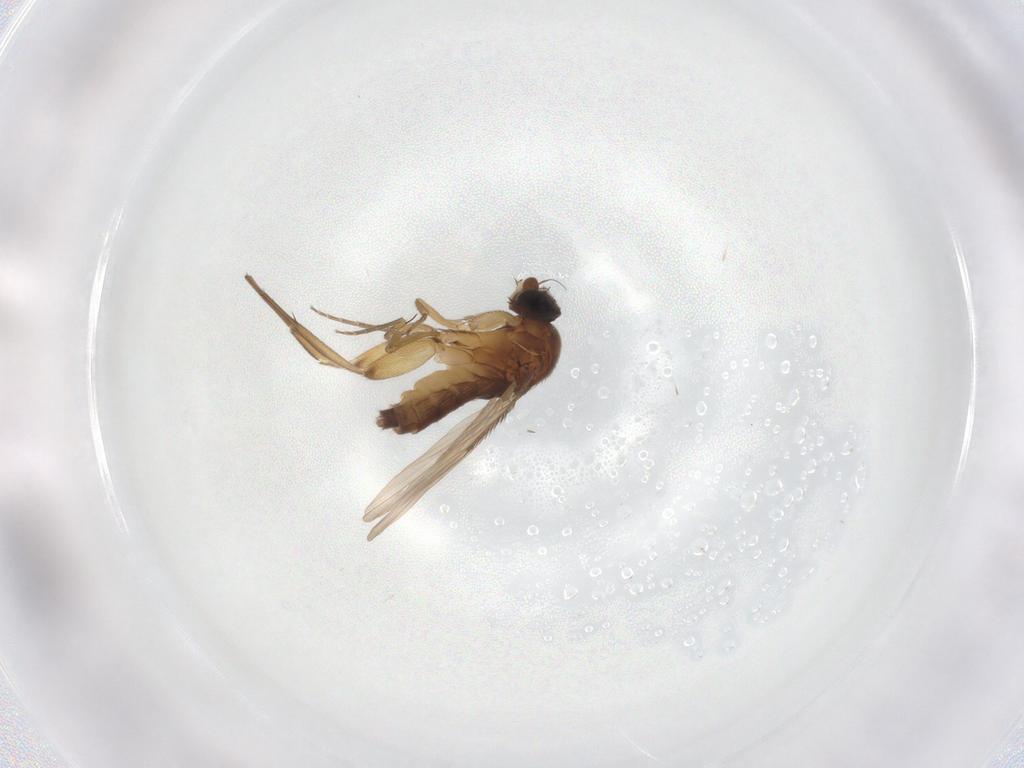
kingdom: Animalia
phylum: Arthropoda
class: Insecta
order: Diptera
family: Phoridae
